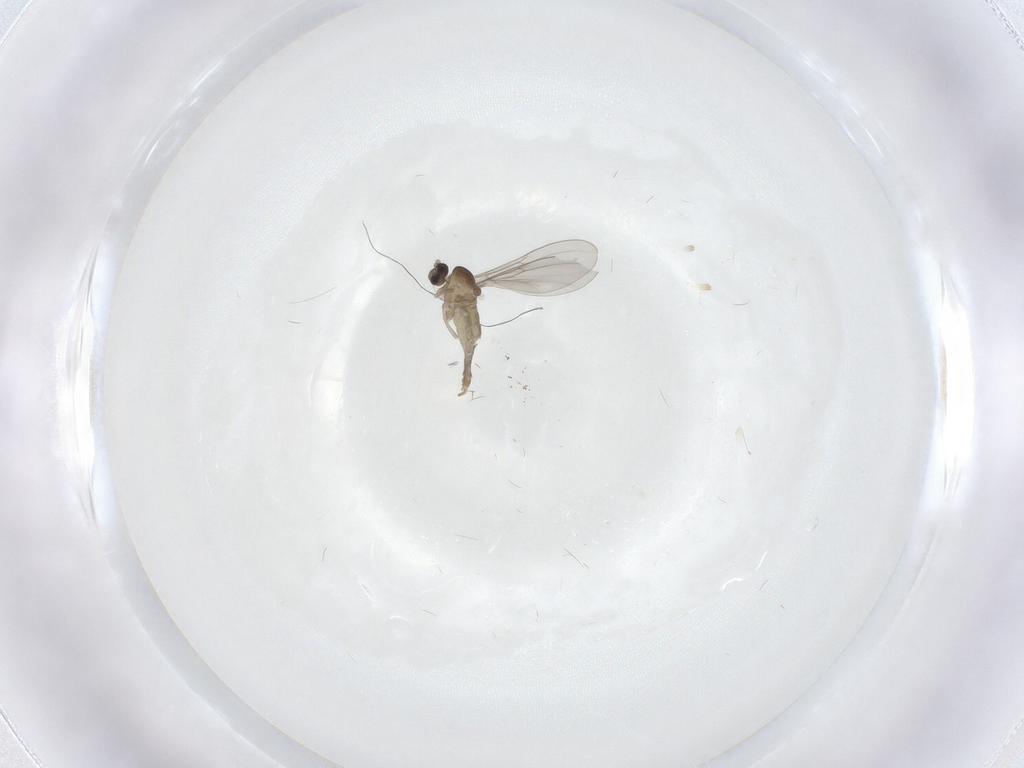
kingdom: Animalia
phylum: Arthropoda
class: Insecta
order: Diptera
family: Cecidomyiidae
